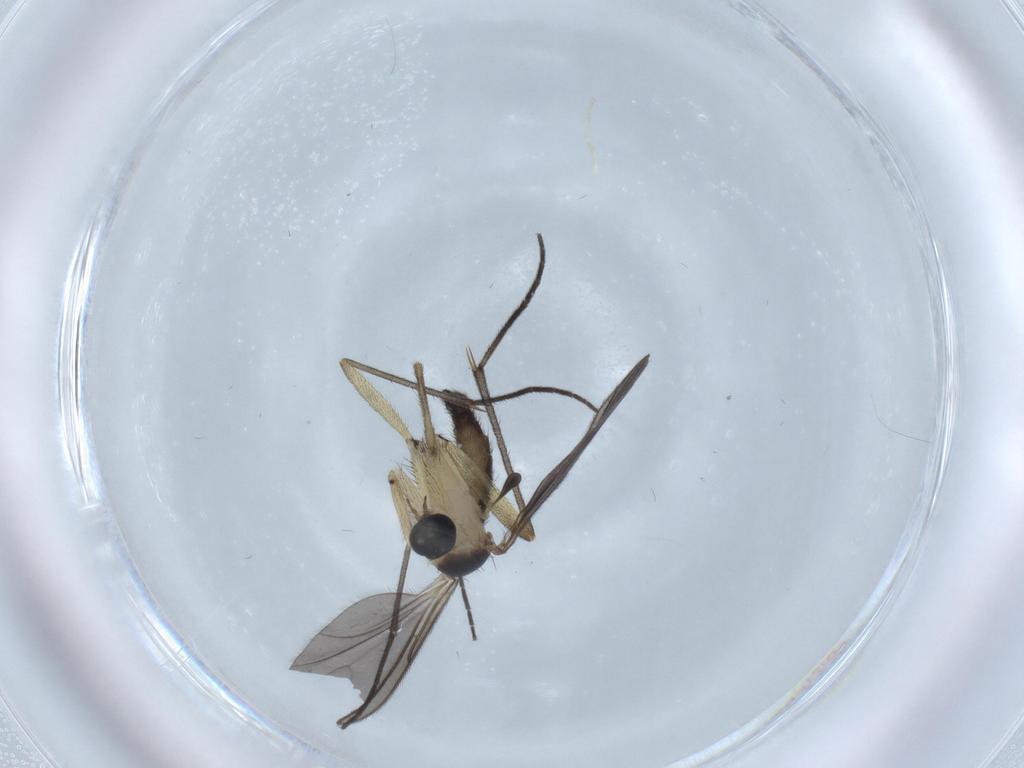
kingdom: Animalia
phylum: Arthropoda
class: Insecta
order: Diptera
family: Sciaridae
